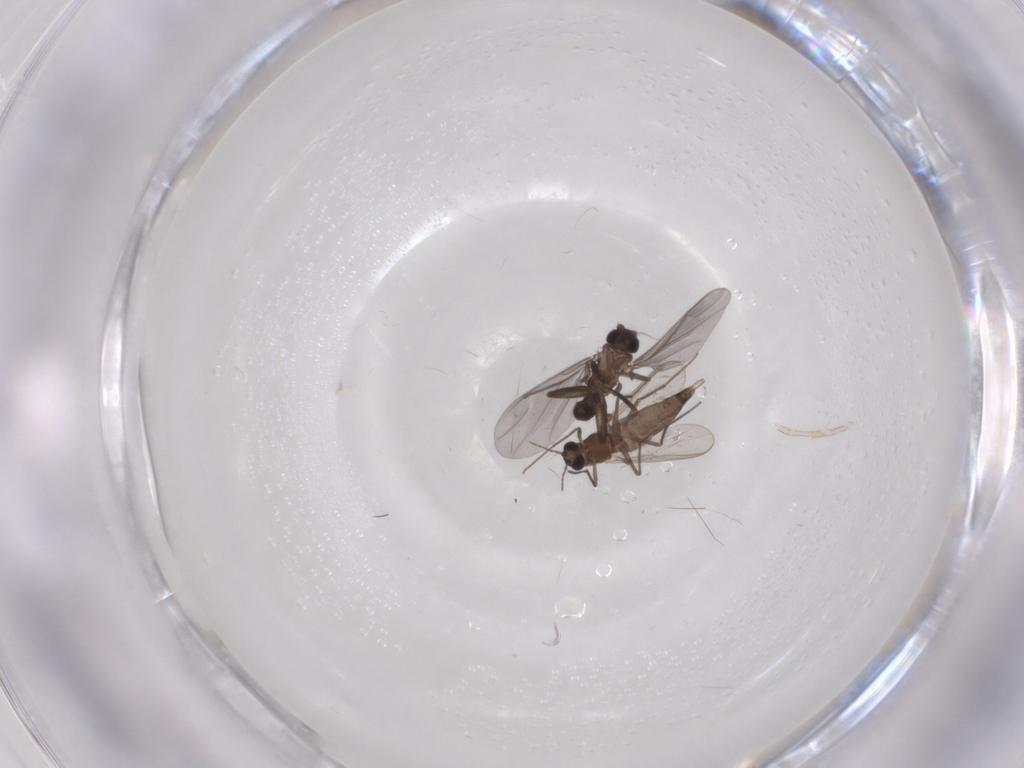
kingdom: Animalia
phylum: Arthropoda
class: Insecta
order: Diptera
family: Chironomidae
